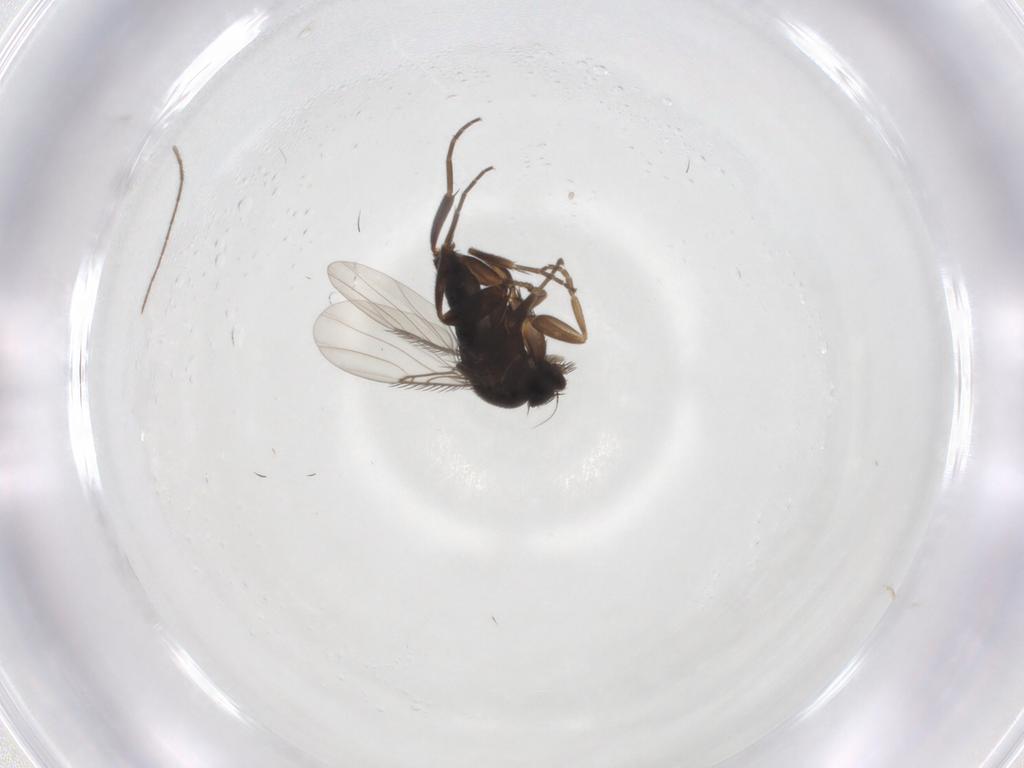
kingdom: Animalia
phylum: Arthropoda
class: Insecta
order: Diptera
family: Phoridae
